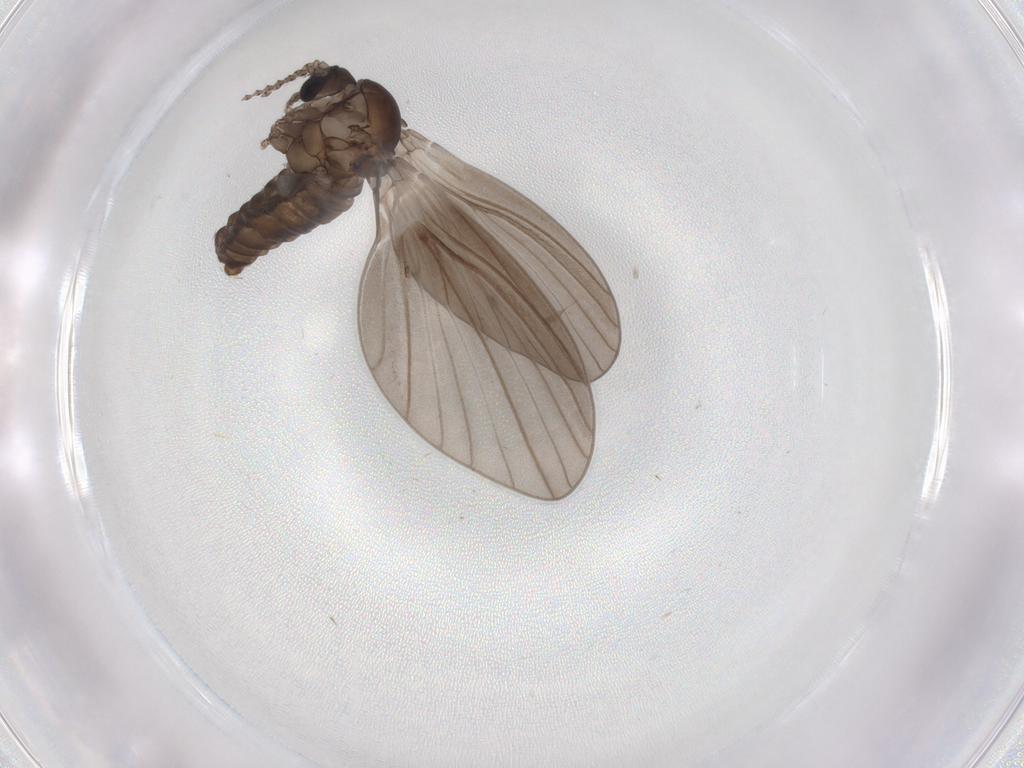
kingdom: Animalia
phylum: Arthropoda
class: Insecta
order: Diptera
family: Psychodidae
